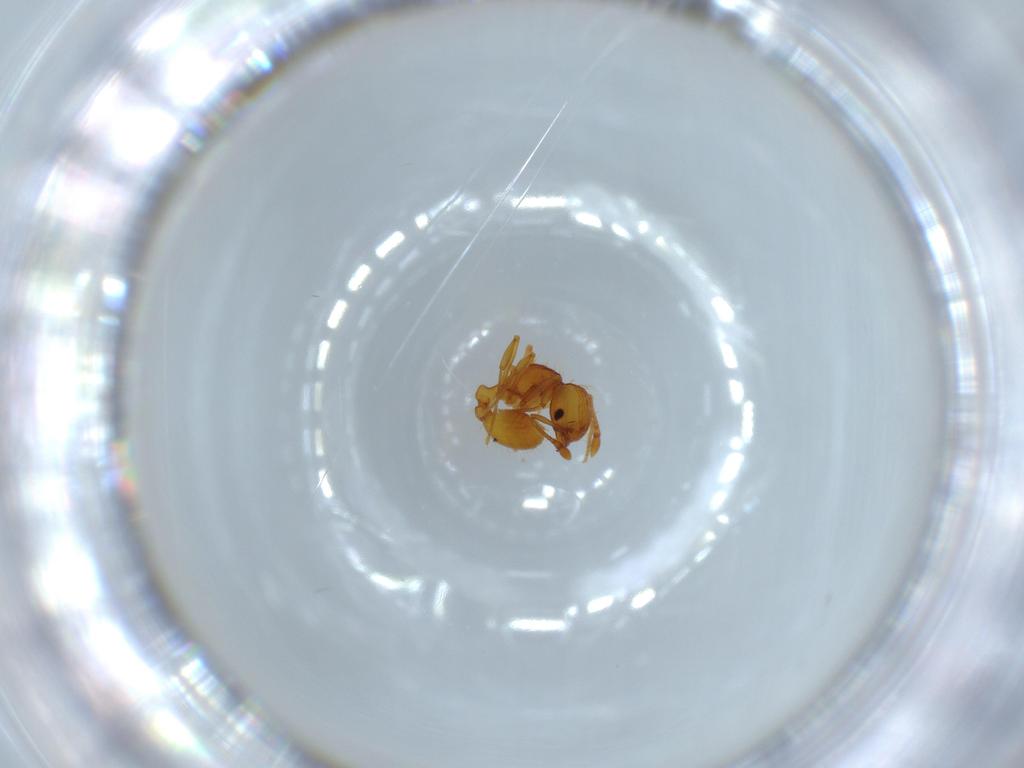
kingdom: Animalia
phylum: Arthropoda
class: Insecta
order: Hymenoptera
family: Formicidae
